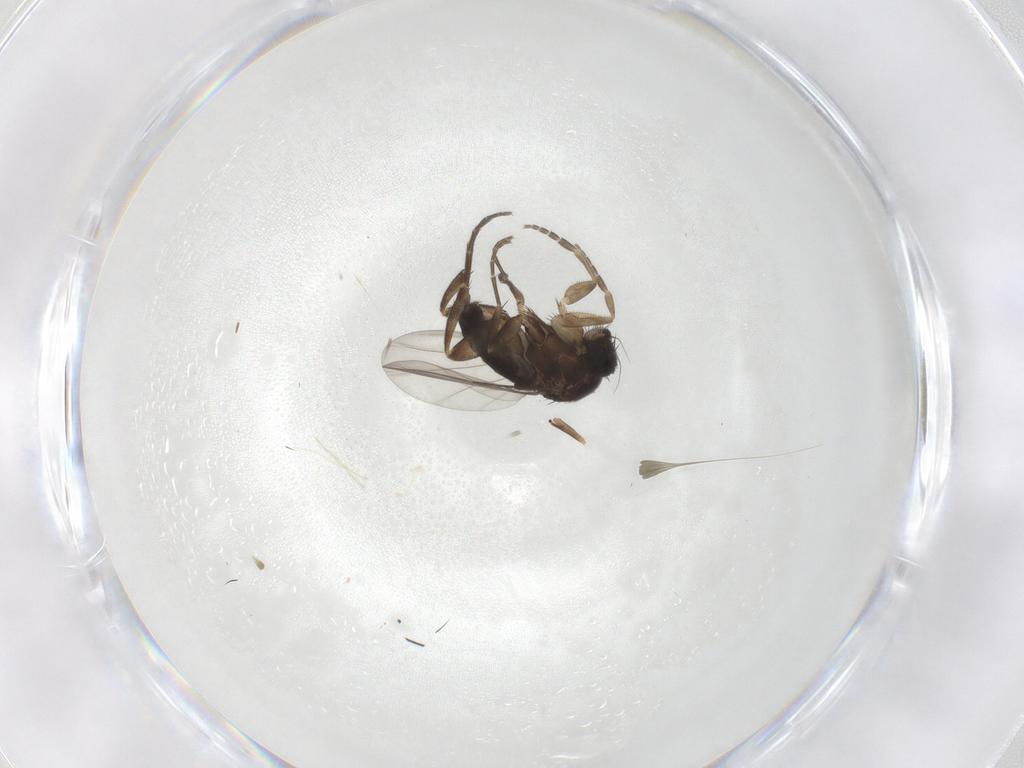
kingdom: Animalia
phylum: Arthropoda
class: Insecta
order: Diptera
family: Phoridae
